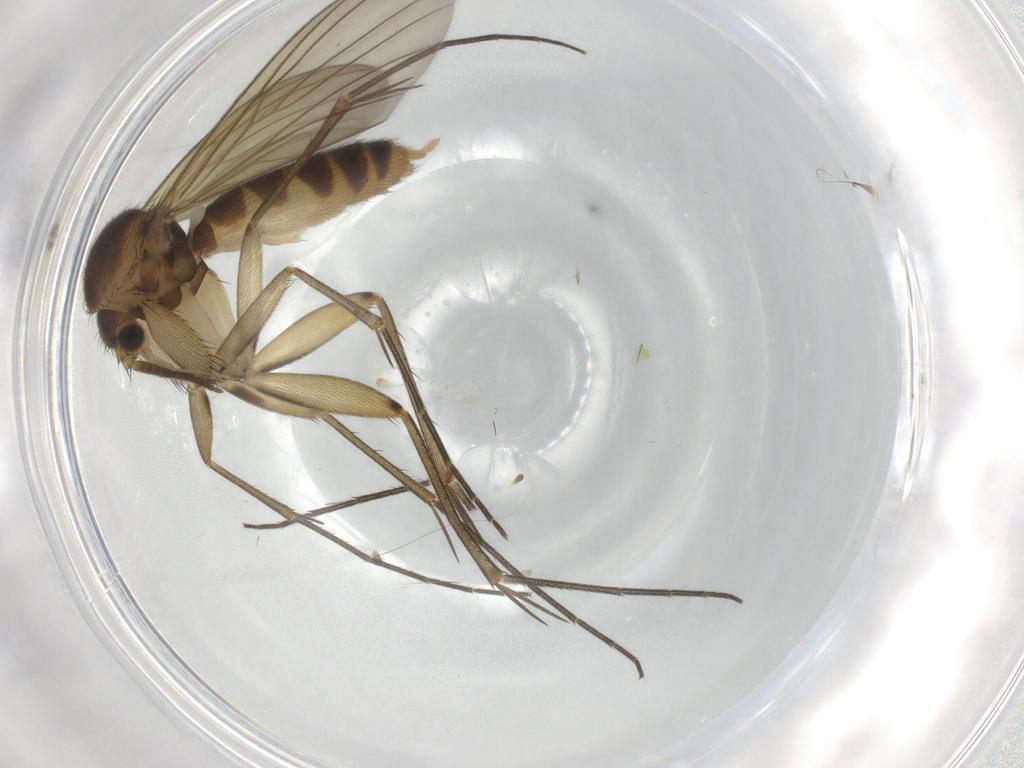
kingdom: Animalia
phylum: Arthropoda
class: Insecta
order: Diptera
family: Mycetophilidae
